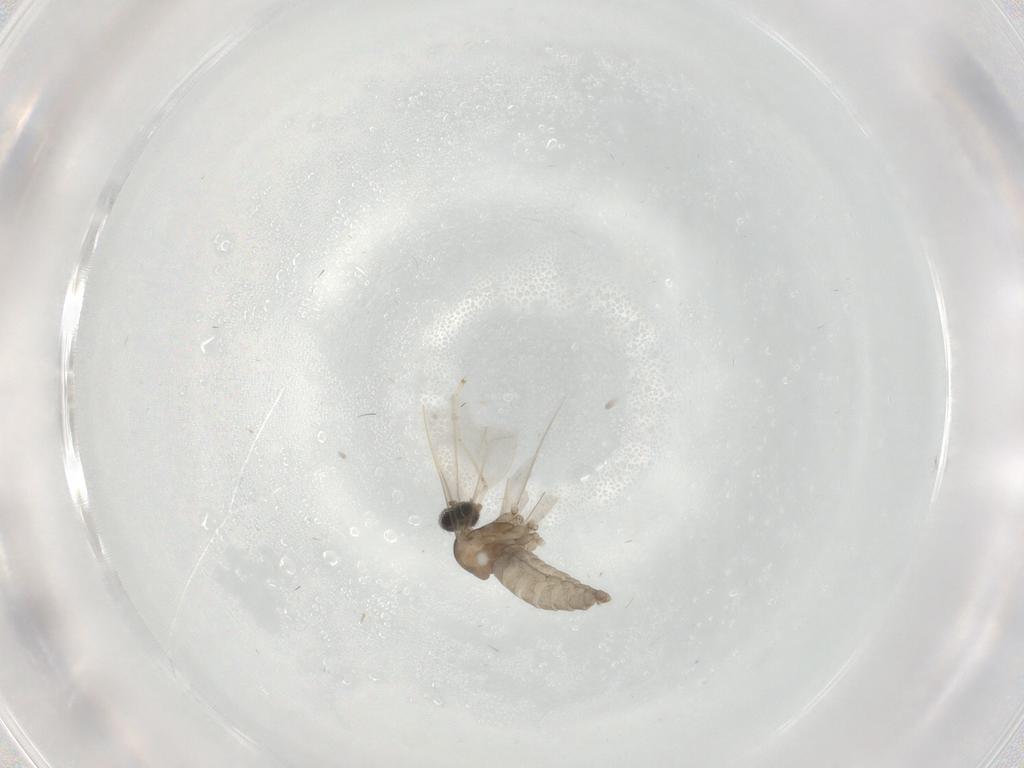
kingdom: Animalia
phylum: Arthropoda
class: Insecta
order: Diptera
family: Cecidomyiidae
